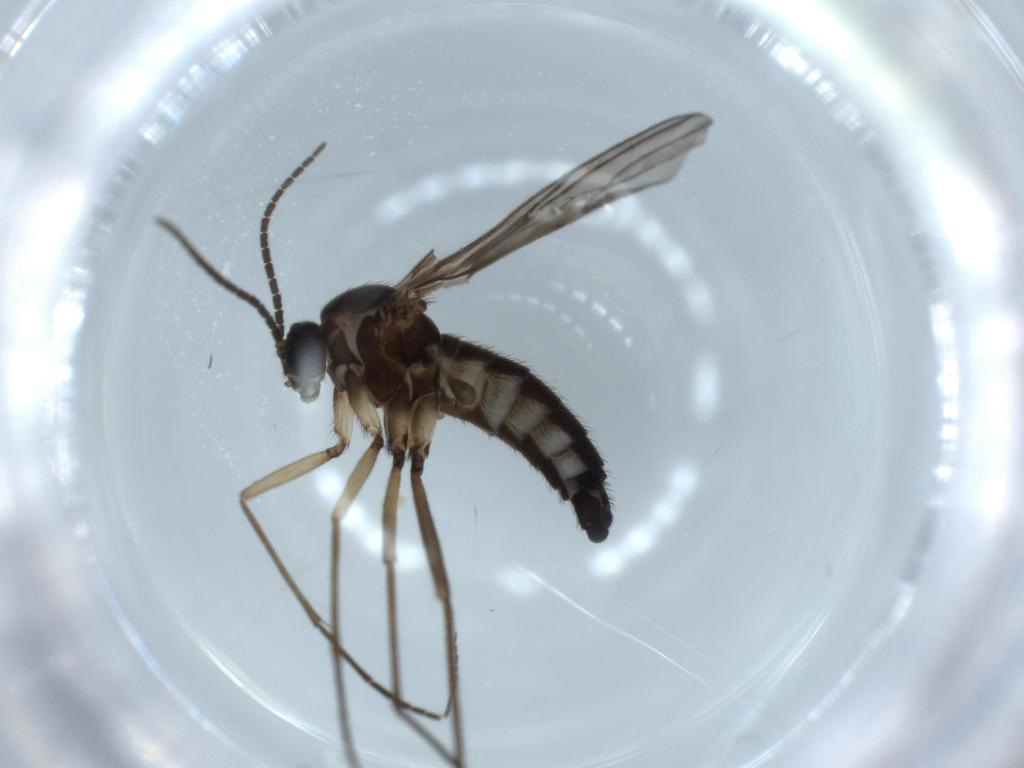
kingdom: Animalia
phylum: Arthropoda
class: Insecta
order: Diptera
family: Sciaridae
